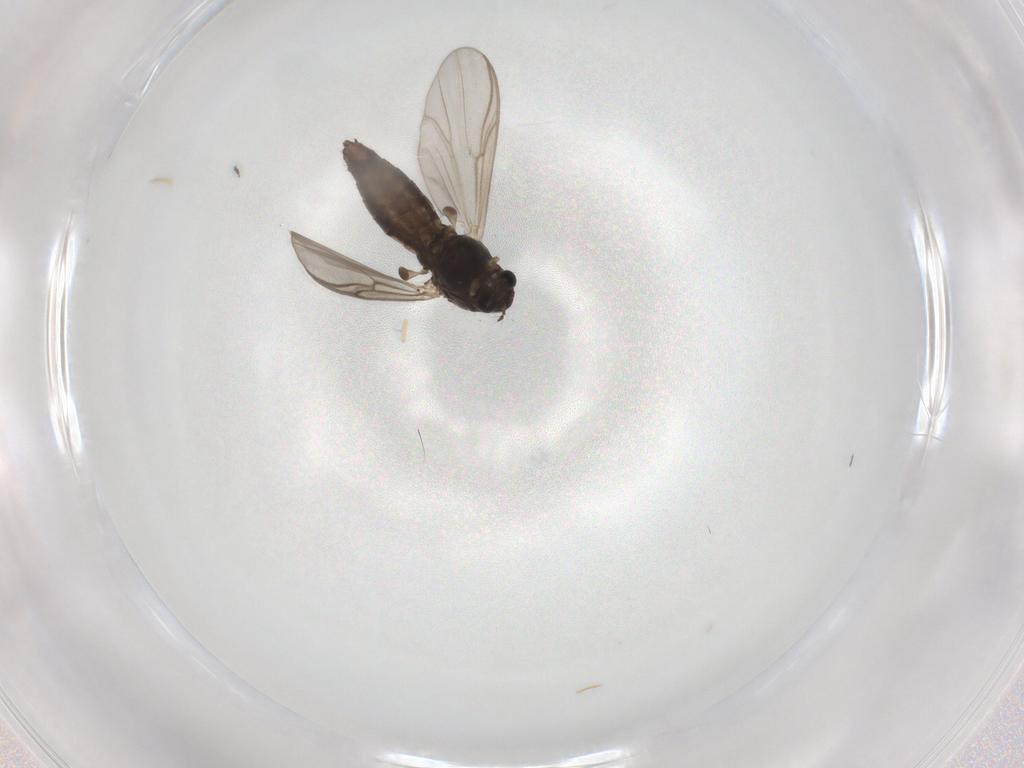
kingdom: Animalia
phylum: Arthropoda
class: Insecta
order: Diptera
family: Chironomidae
